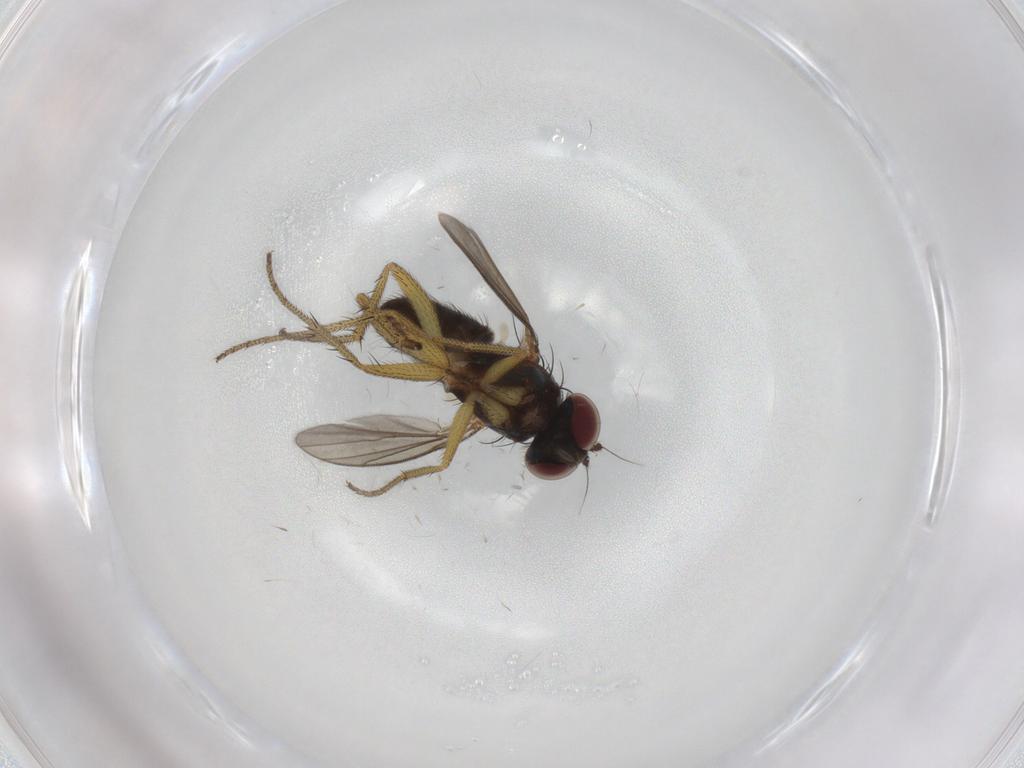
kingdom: Animalia
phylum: Arthropoda
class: Insecta
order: Diptera
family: Dolichopodidae
